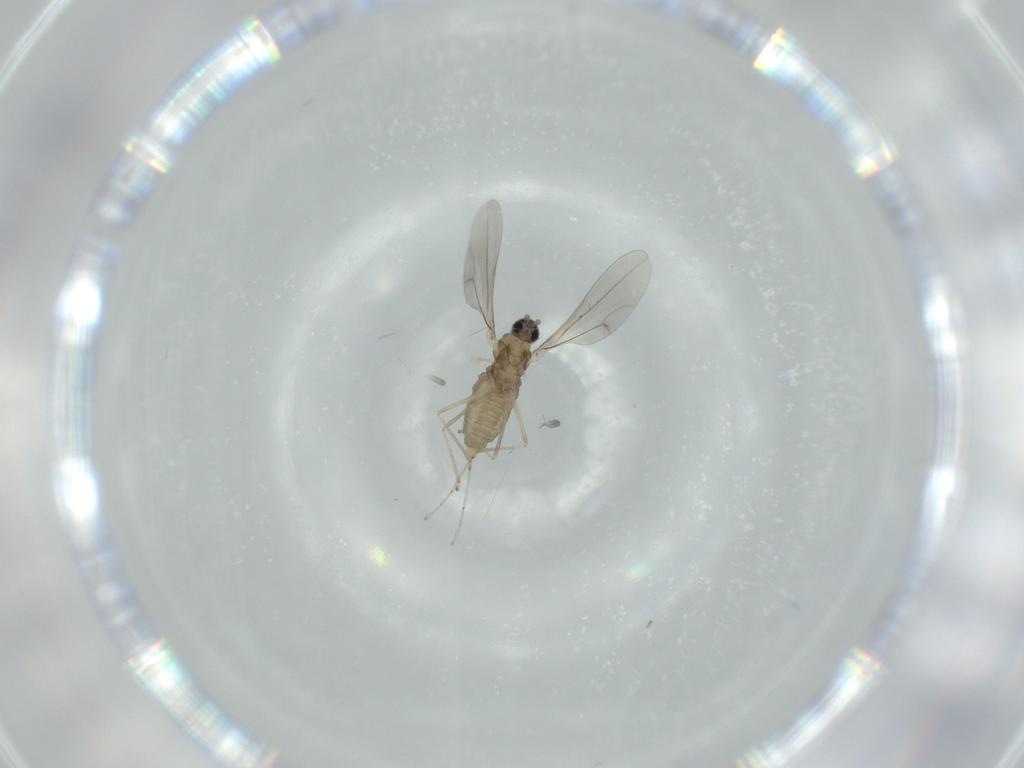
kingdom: Animalia
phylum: Arthropoda
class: Insecta
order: Diptera
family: Cecidomyiidae
